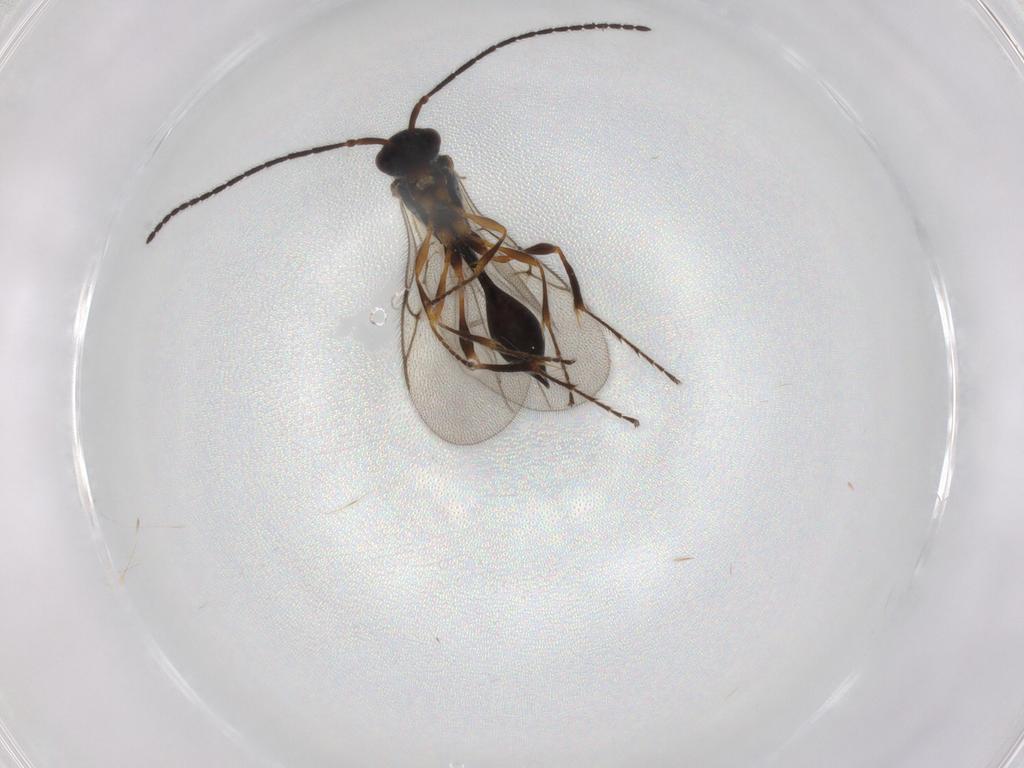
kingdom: Animalia
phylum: Arthropoda
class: Insecta
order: Hymenoptera
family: Diapriidae
